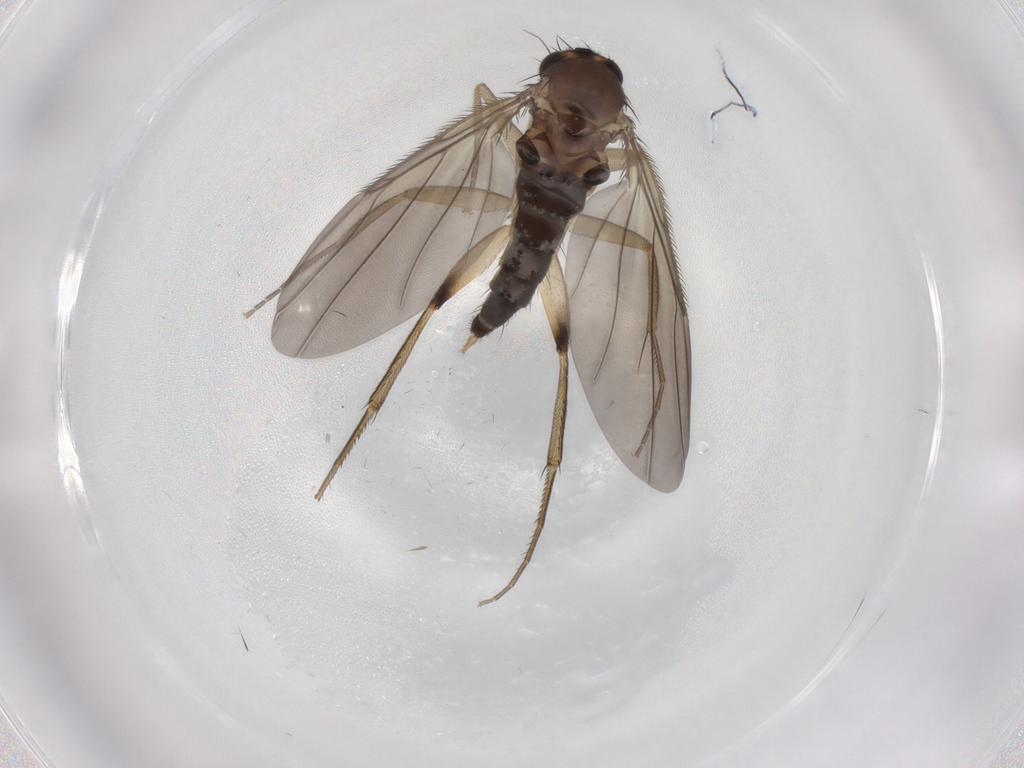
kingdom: Animalia
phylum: Arthropoda
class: Insecta
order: Diptera
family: Phoridae
